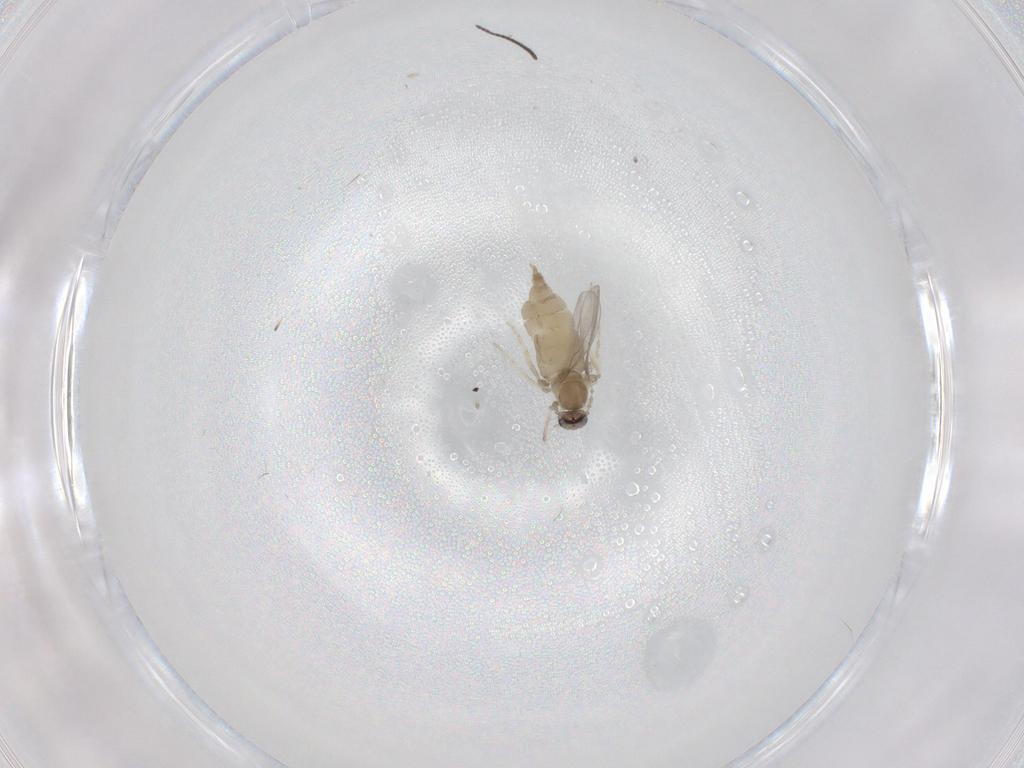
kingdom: Animalia
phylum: Arthropoda
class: Insecta
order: Diptera
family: Cecidomyiidae
